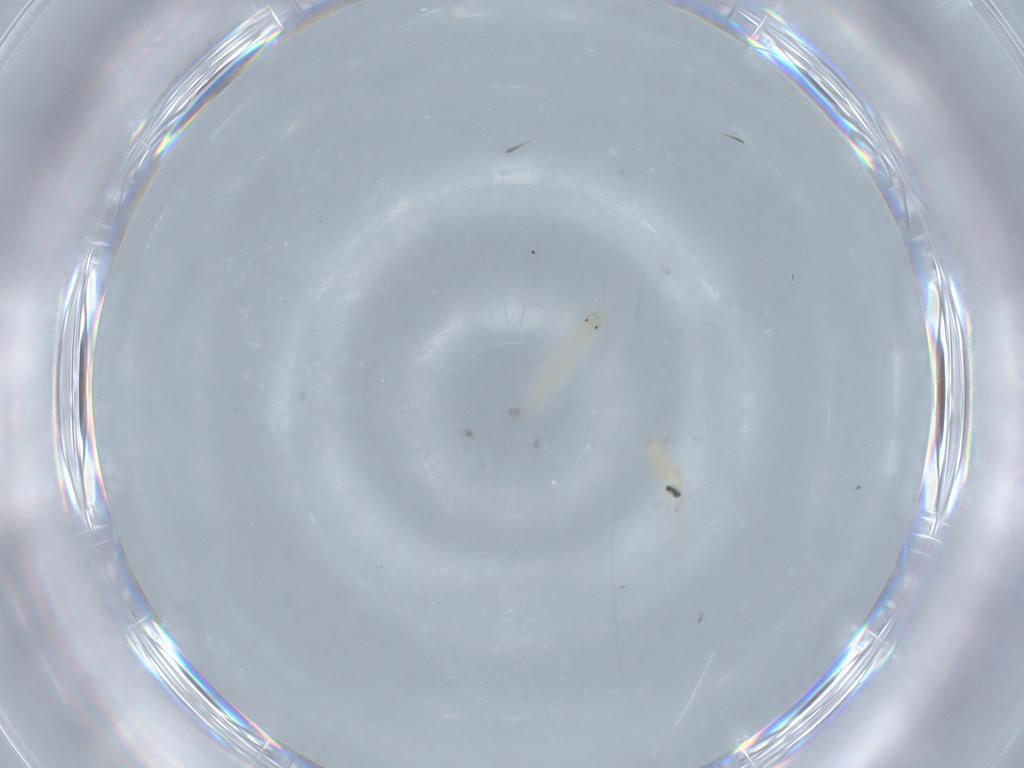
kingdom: Animalia
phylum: Arthropoda
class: Insecta
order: Diptera
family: Cecidomyiidae
